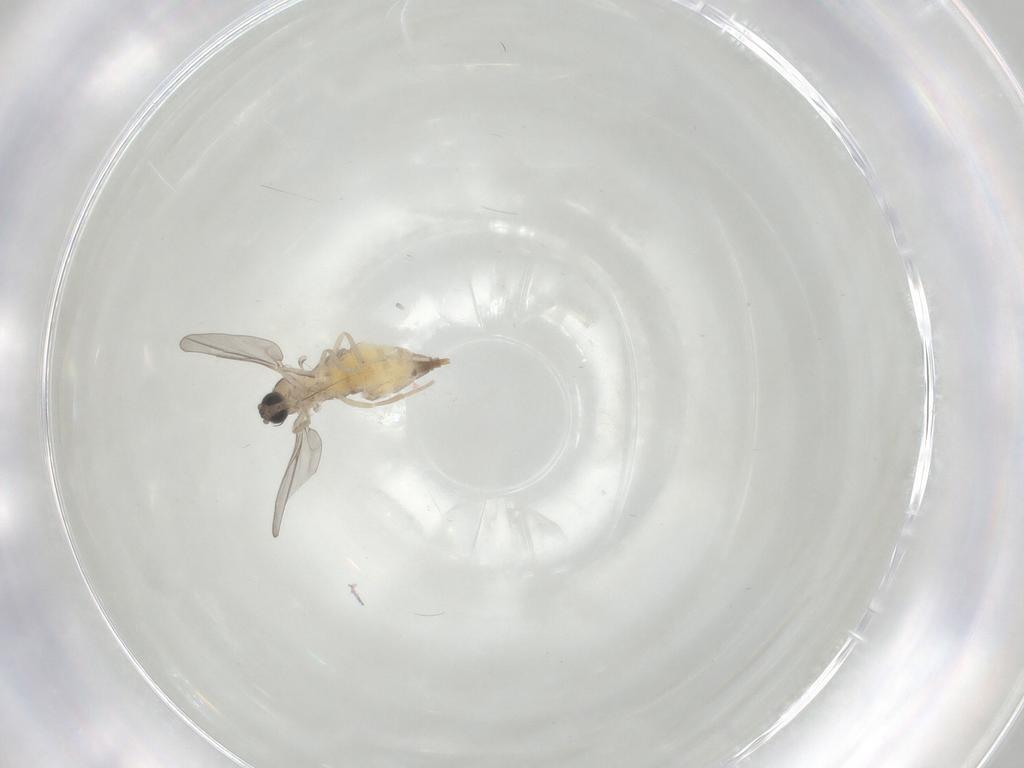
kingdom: Animalia
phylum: Arthropoda
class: Insecta
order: Diptera
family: Cecidomyiidae
